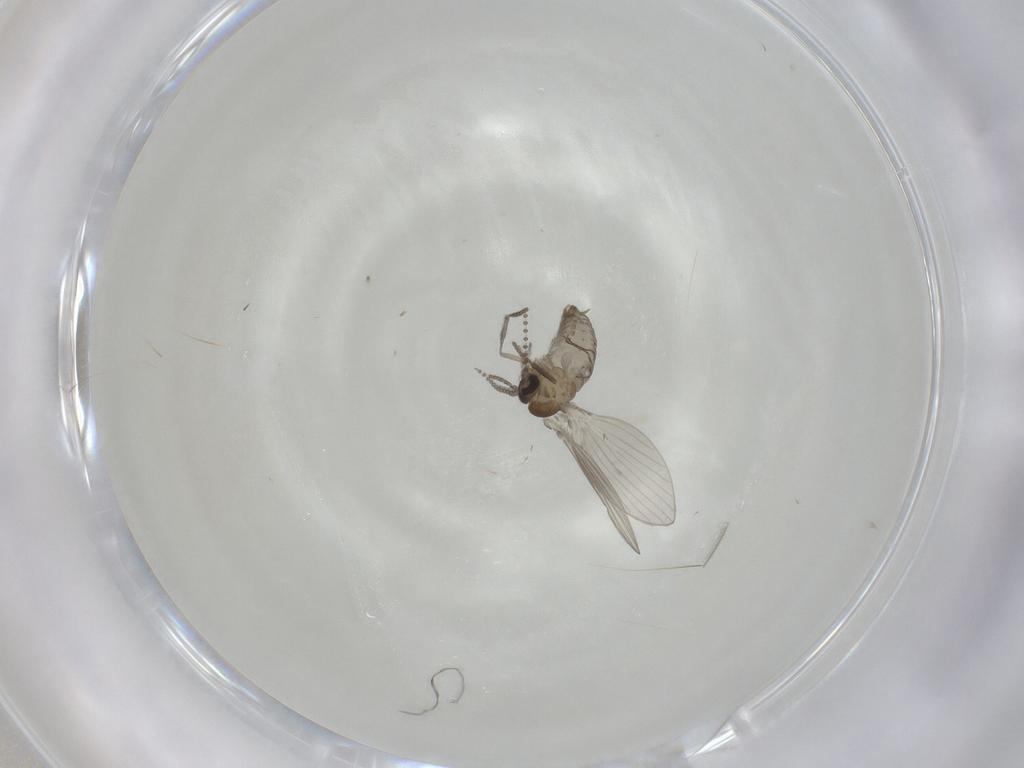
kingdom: Animalia
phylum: Arthropoda
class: Insecta
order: Diptera
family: Psychodidae
